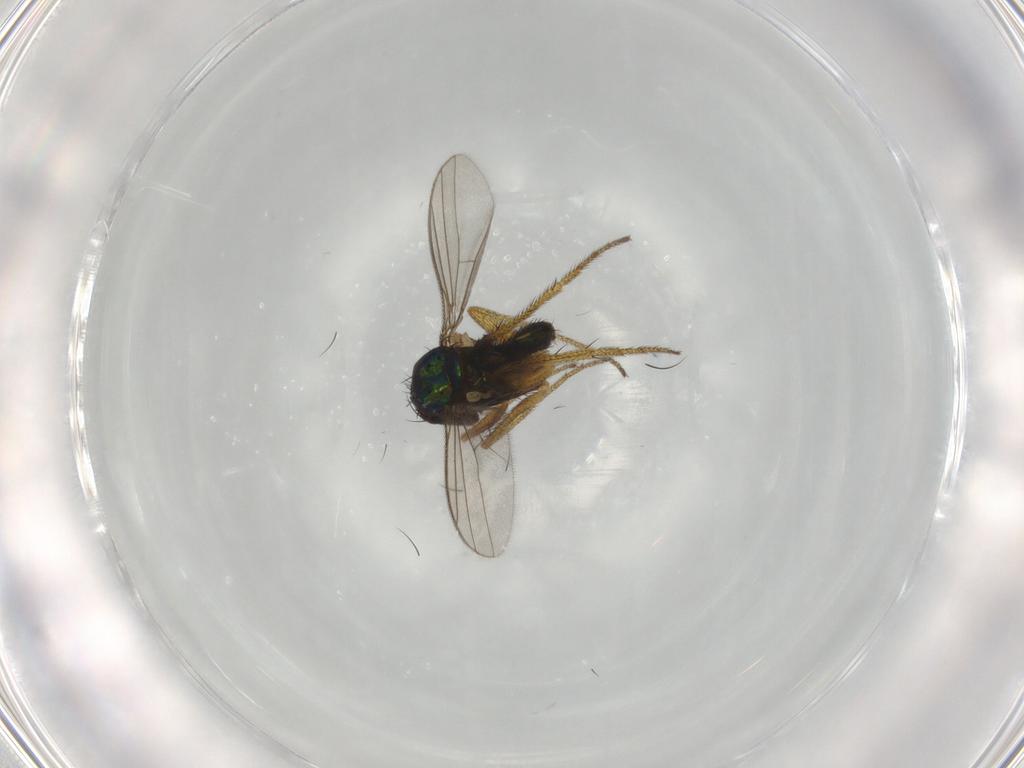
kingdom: Animalia
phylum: Arthropoda
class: Insecta
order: Diptera
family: Dolichopodidae
